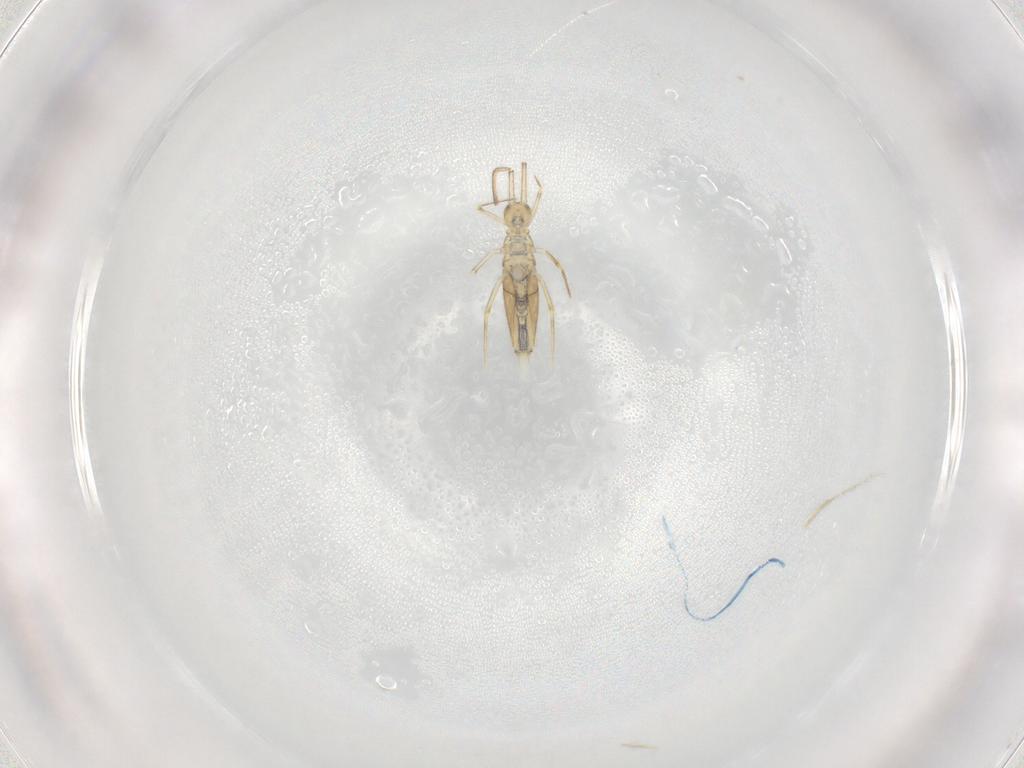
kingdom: Animalia
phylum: Arthropoda
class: Collembola
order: Entomobryomorpha
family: Paronellidae
